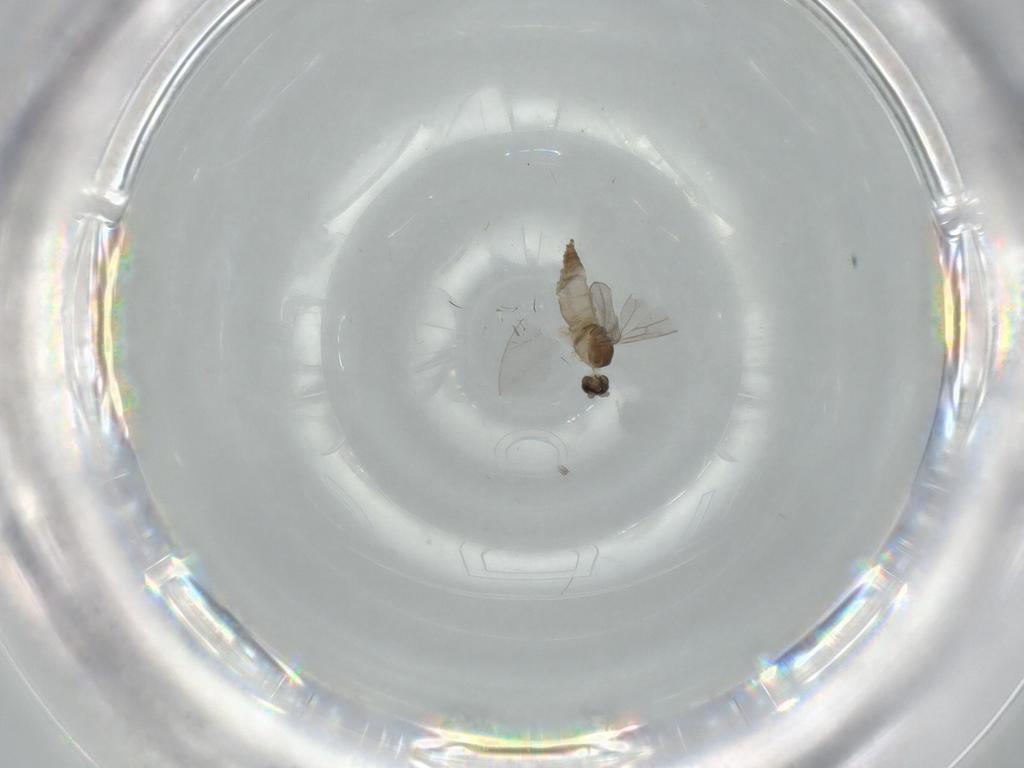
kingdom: Animalia
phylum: Arthropoda
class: Insecta
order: Diptera
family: Cecidomyiidae
